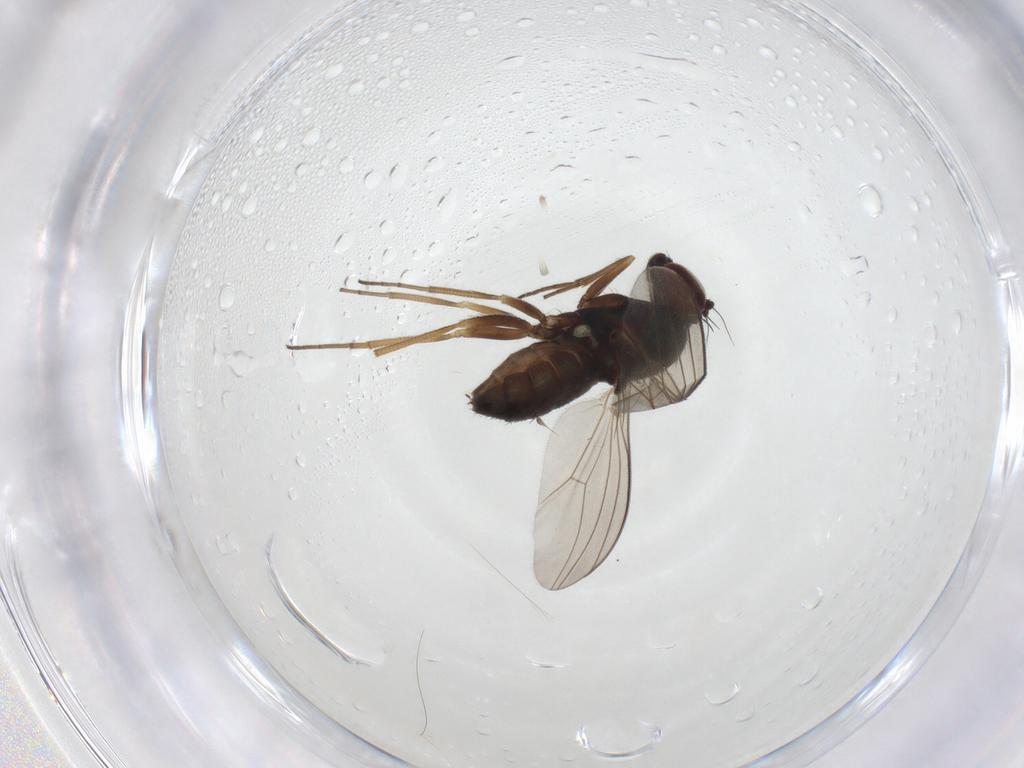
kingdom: Animalia
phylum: Arthropoda
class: Insecta
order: Diptera
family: Dolichopodidae
